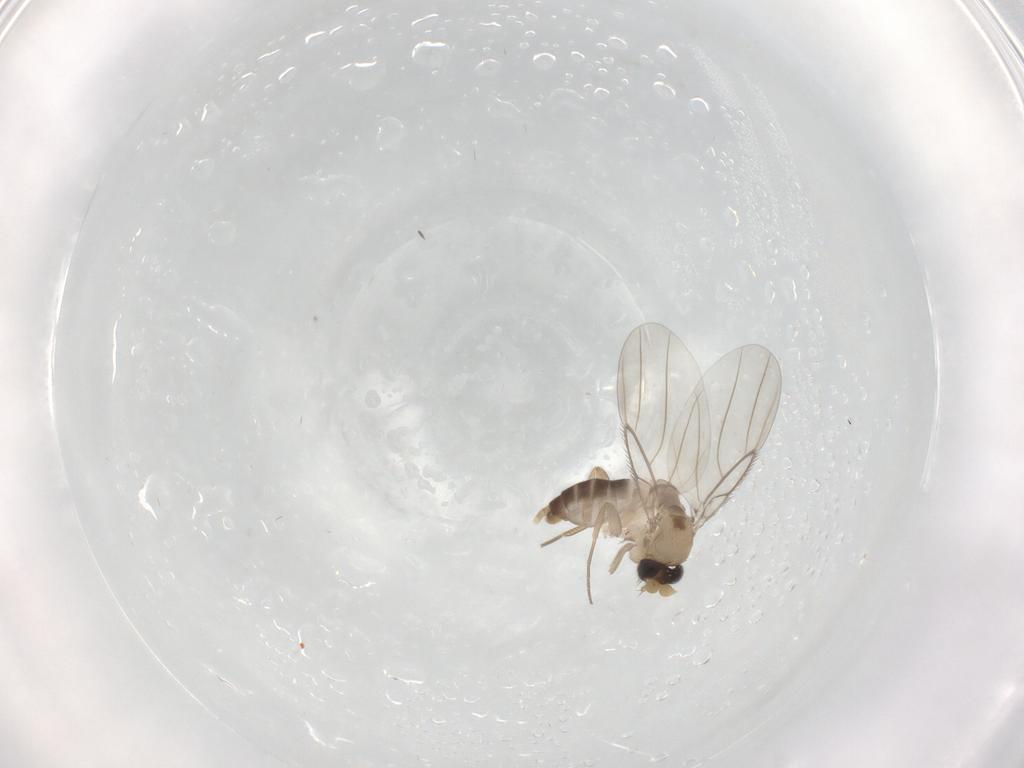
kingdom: Animalia
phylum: Arthropoda
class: Insecta
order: Diptera
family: Phoridae
